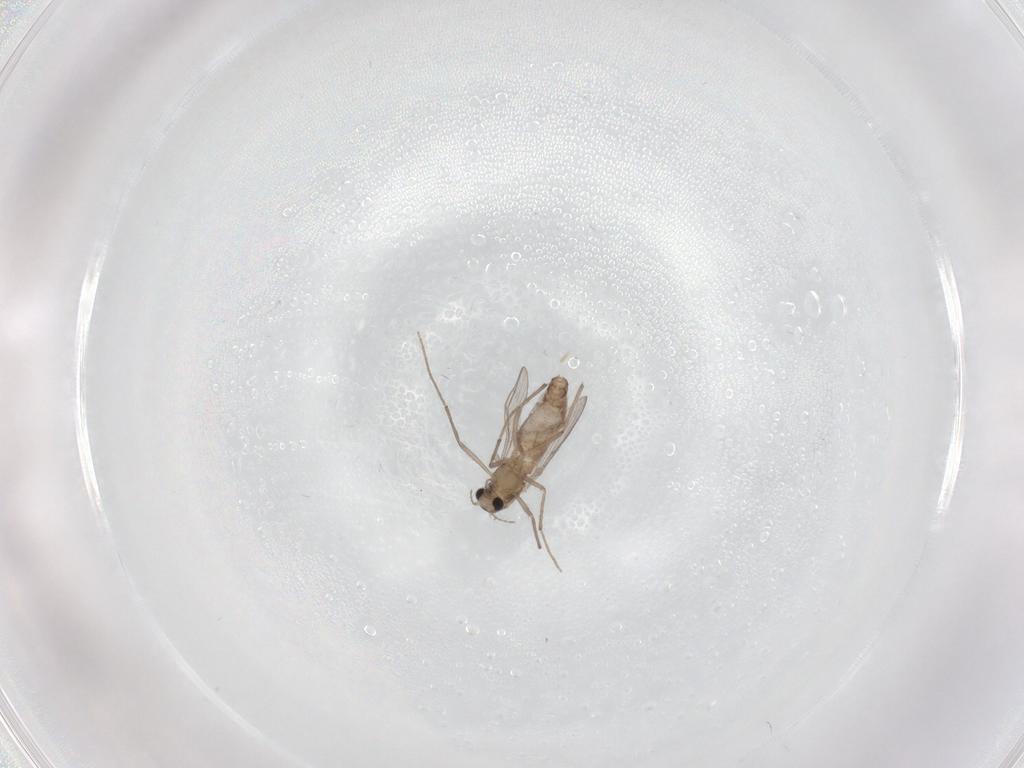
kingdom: Animalia
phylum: Arthropoda
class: Insecta
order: Diptera
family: Chironomidae
